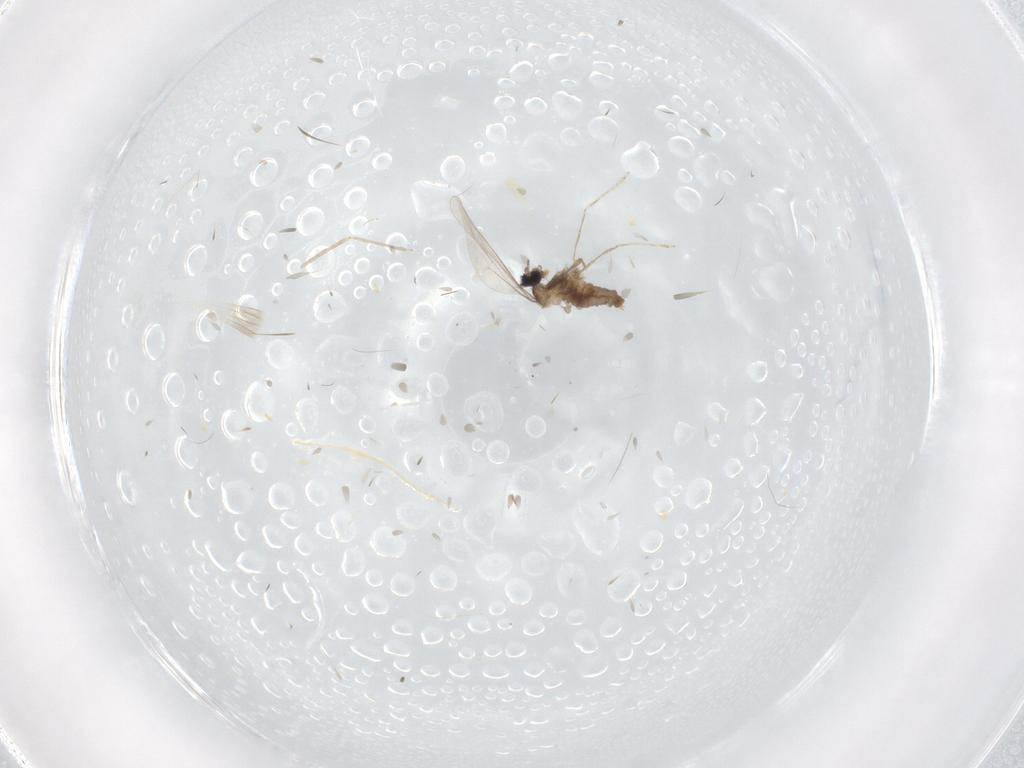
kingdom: Animalia
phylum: Arthropoda
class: Insecta
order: Diptera
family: Cecidomyiidae
